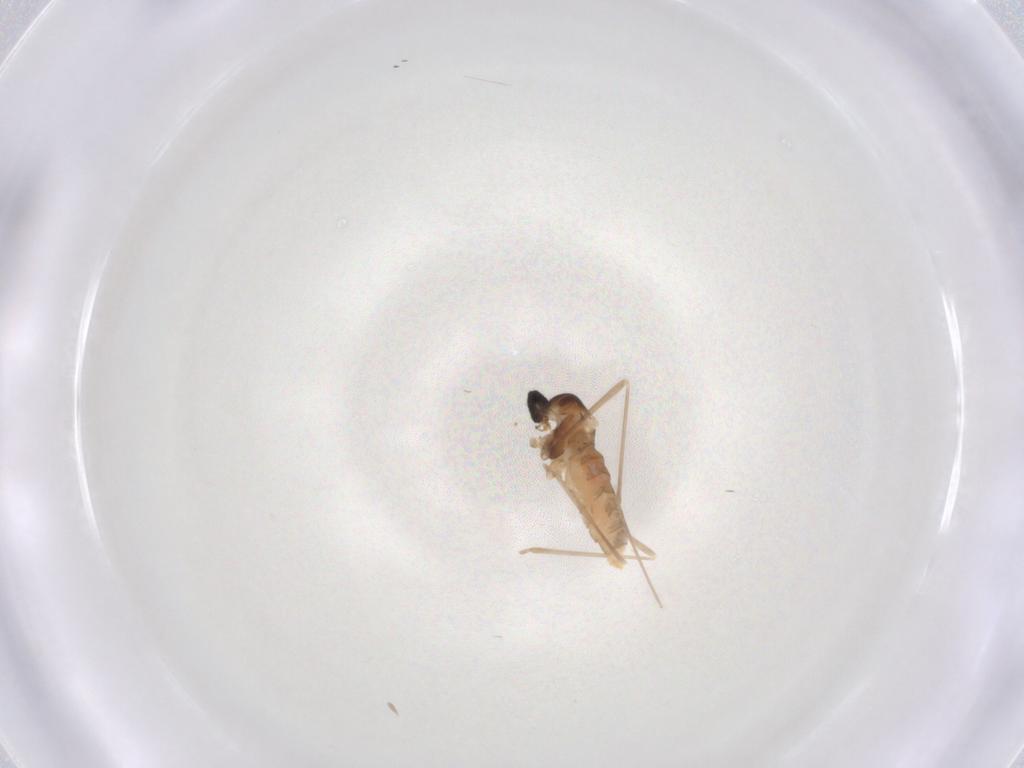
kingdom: Animalia
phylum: Arthropoda
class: Insecta
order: Diptera
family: Cecidomyiidae
